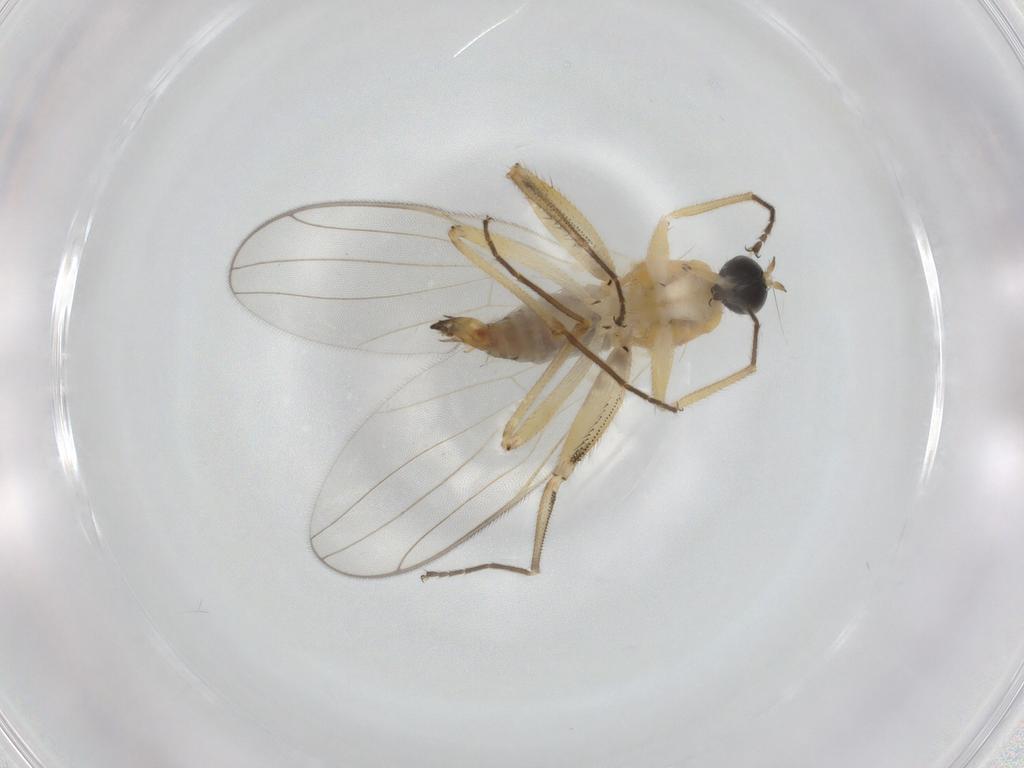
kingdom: Animalia
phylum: Arthropoda
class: Insecta
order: Diptera
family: Hybotidae
